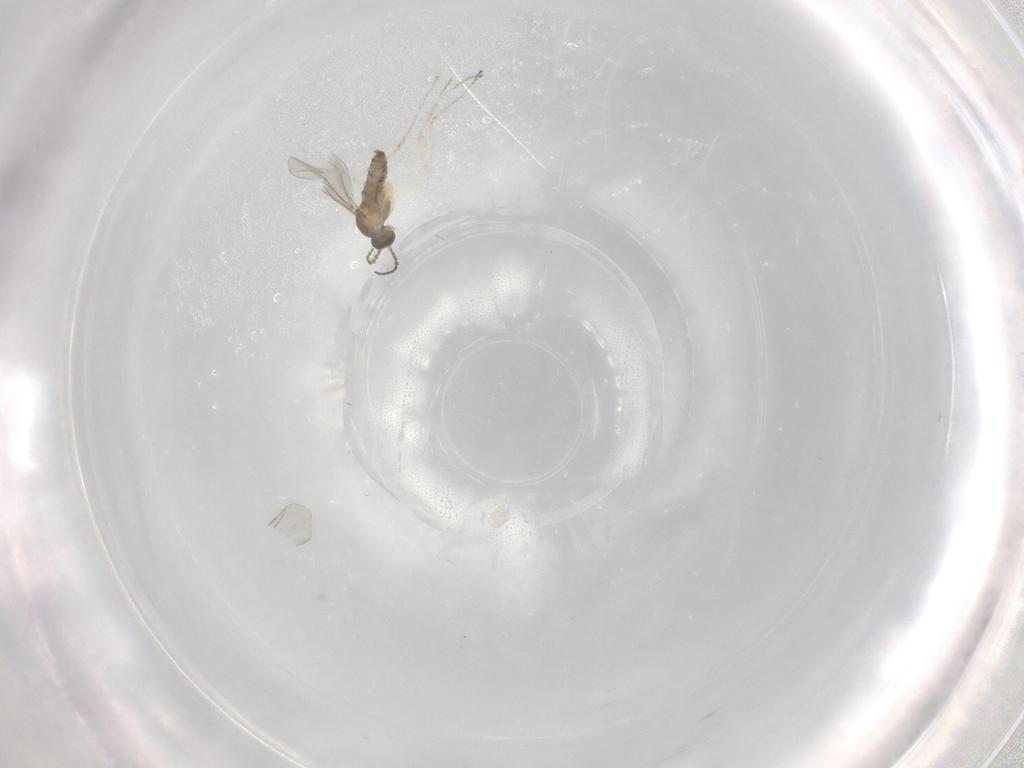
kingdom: Animalia
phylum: Arthropoda
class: Insecta
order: Diptera
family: Cecidomyiidae
